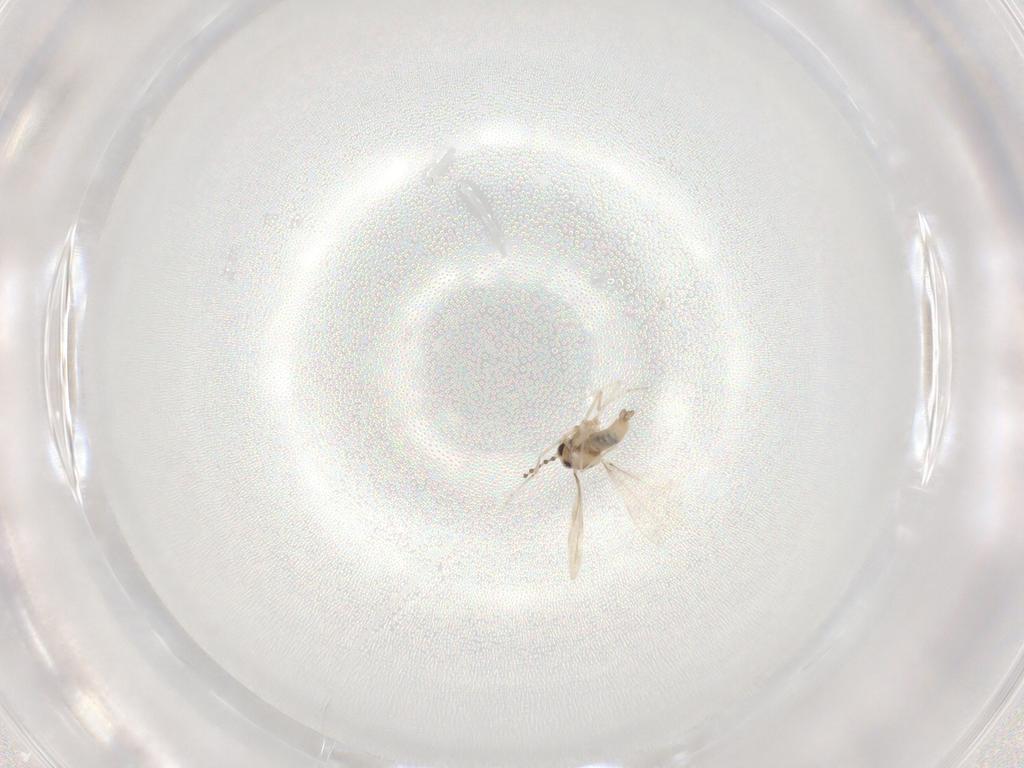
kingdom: Animalia
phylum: Arthropoda
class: Insecta
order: Diptera
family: Cecidomyiidae
